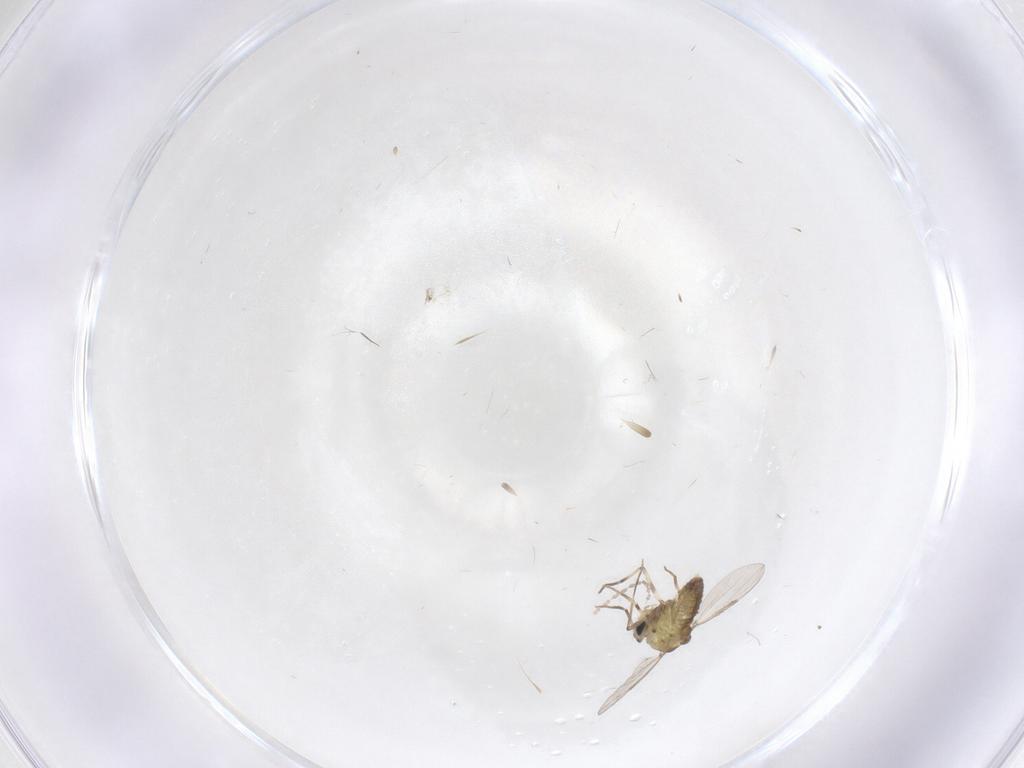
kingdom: Animalia
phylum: Arthropoda
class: Insecta
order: Diptera
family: Chironomidae
